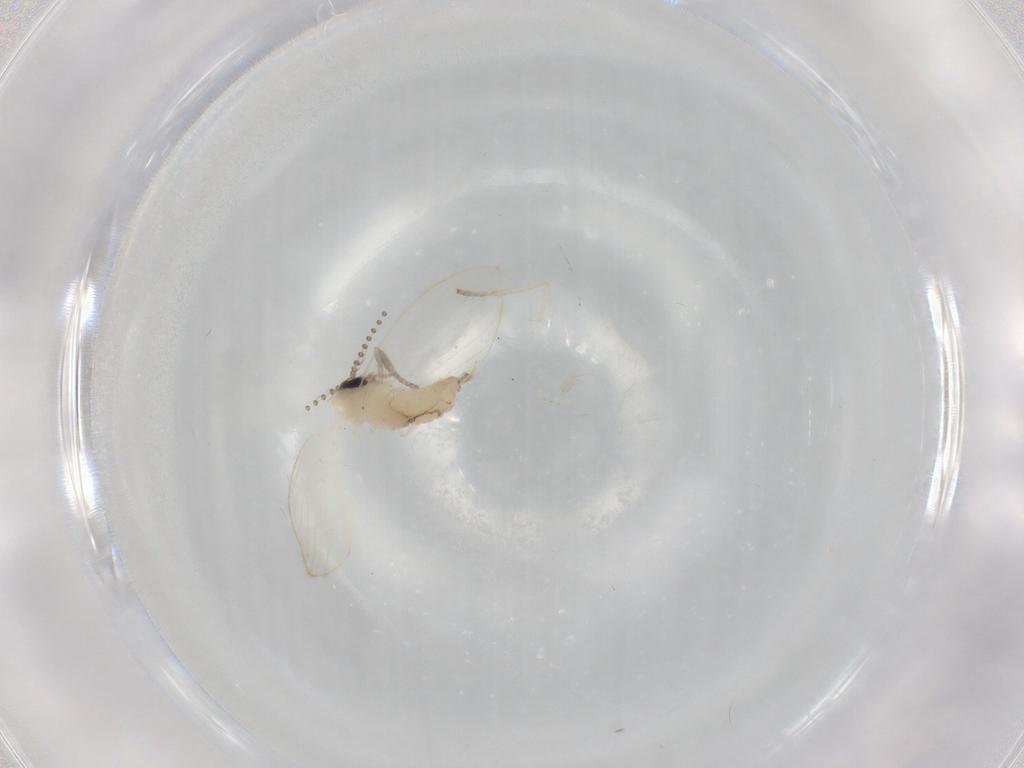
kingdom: Animalia
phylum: Arthropoda
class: Insecta
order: Diptera
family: Psychodidae
